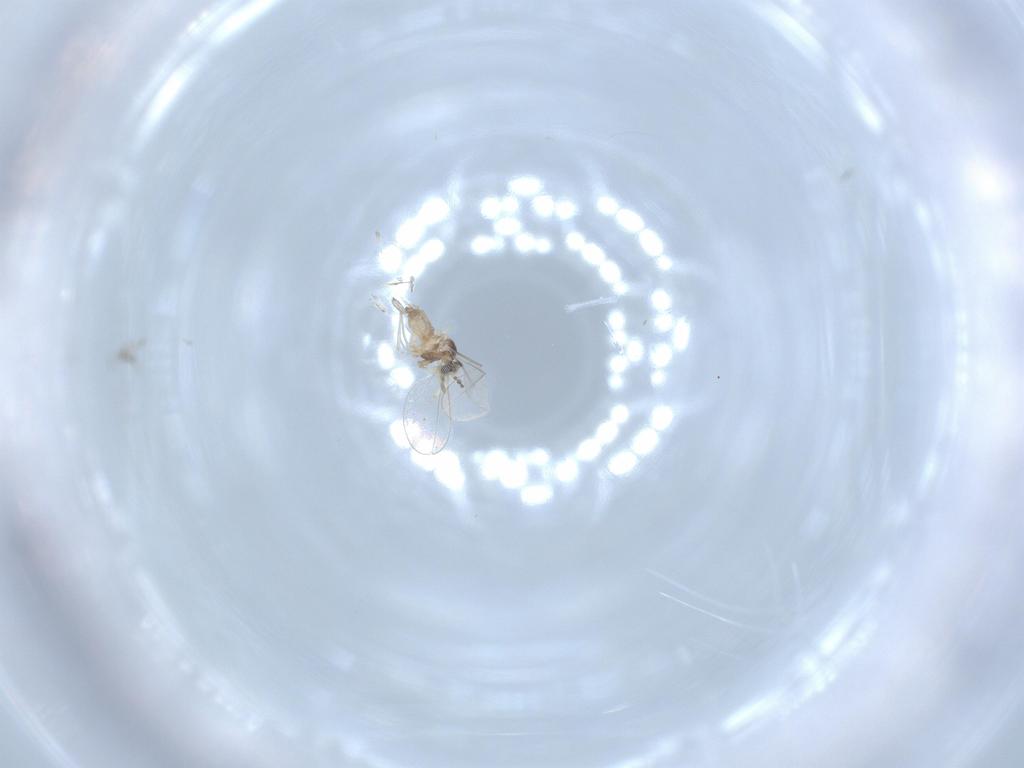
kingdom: Animalia
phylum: Arthropoda
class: Insecta
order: Diptera
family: Cecidomyiidae
